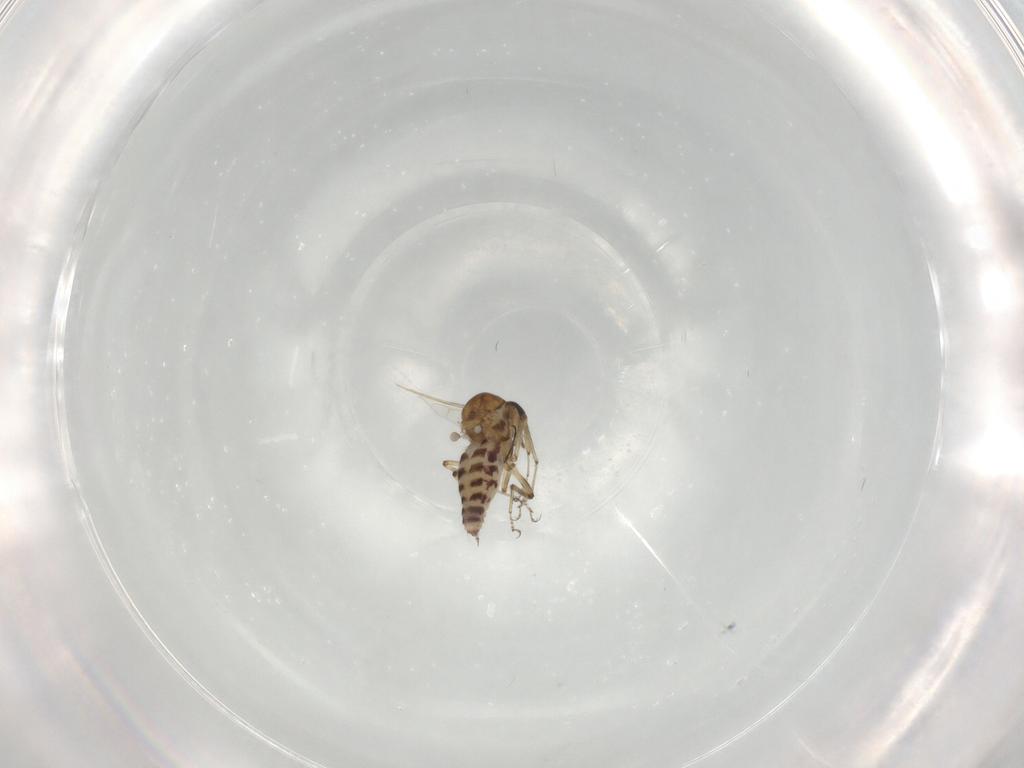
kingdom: Animalia
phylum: Arthropoda
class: Insecta
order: Diptera
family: Ceratopogonidae
